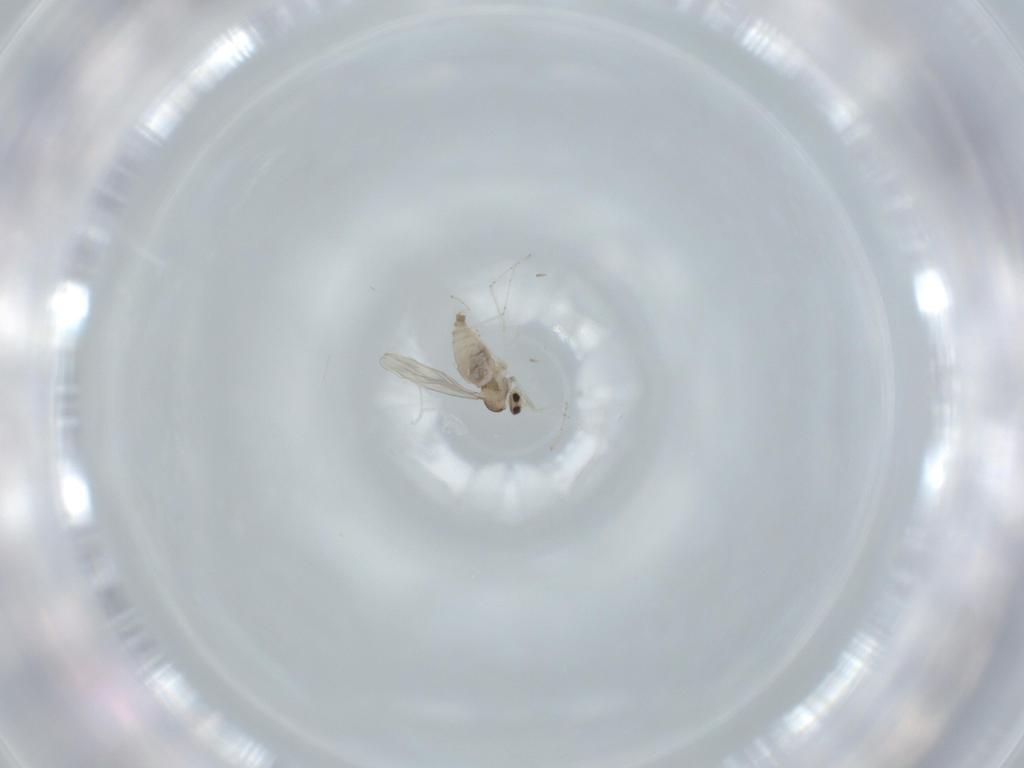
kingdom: Animalia
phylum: Arthropoda
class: Insecta
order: Diptera
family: Cecidomyiidae
